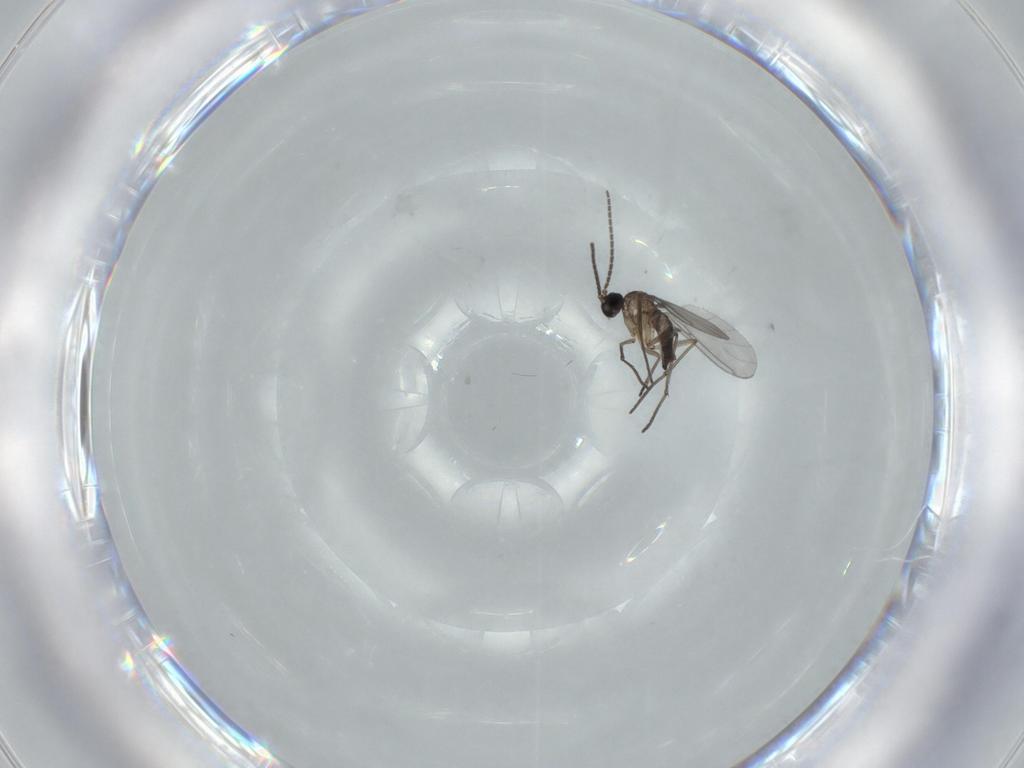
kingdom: Animalia
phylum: Arthropoda
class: Insecta
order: Diptera
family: Sciaridae
